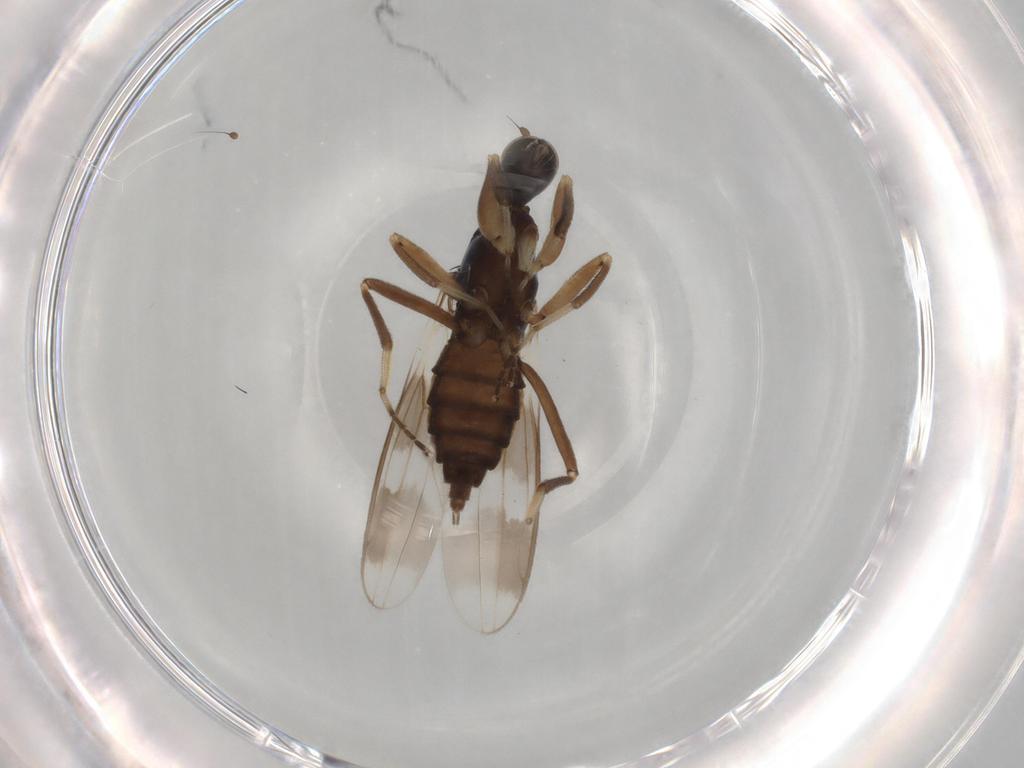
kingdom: Animalia
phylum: Arthropoda
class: Insecta
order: Diptera
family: Hybotidae
